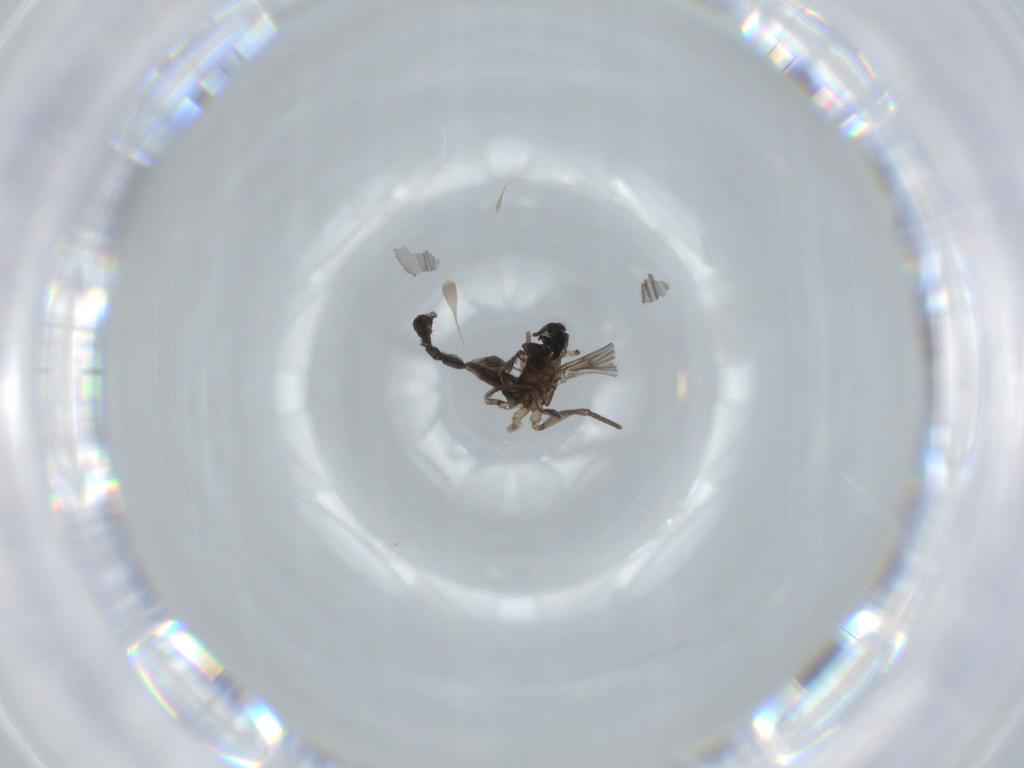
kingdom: Animalia
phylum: Arthropoda
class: Insecta
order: Diptera
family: Sciaridae
